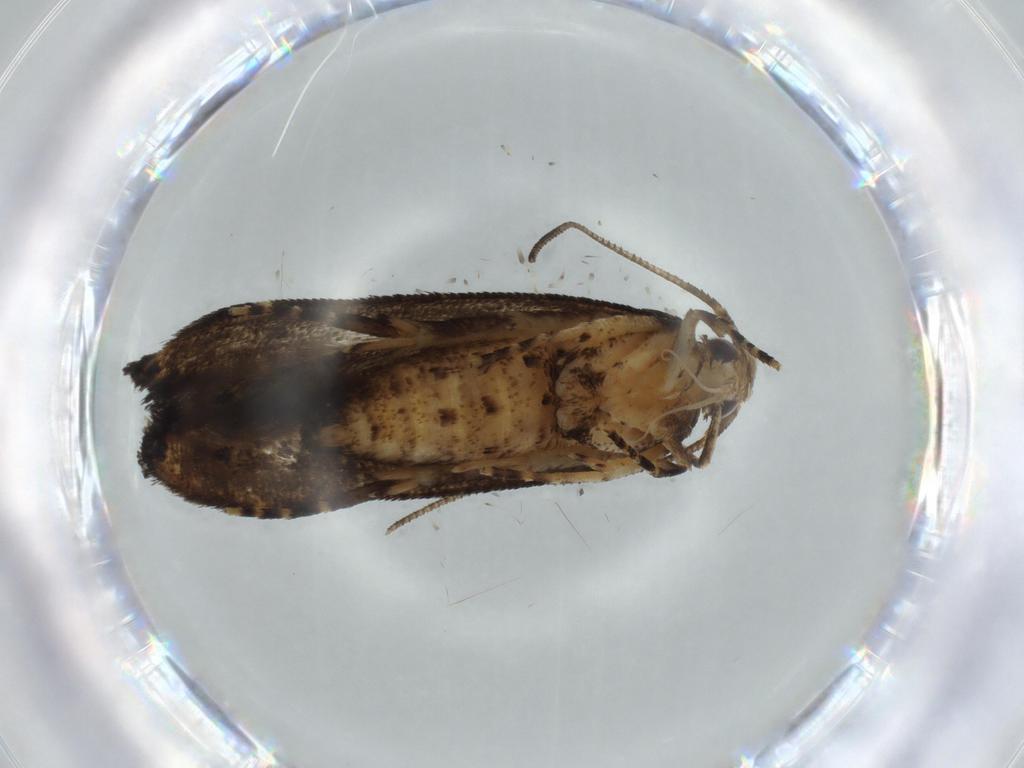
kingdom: Animalia
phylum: Arthropoda
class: Insecta
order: Lepidoptera
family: Cosmopterigidae
